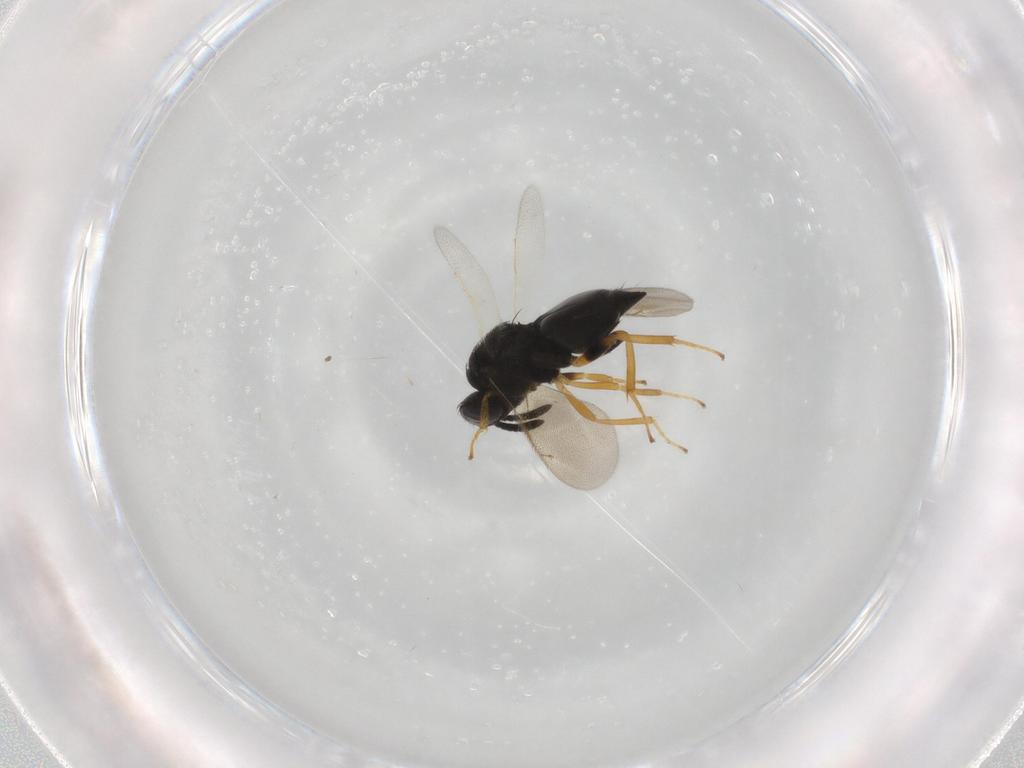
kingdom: Animalia
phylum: Arthropoda
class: Insecta
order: Hymenoptera
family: Pteromalidae
